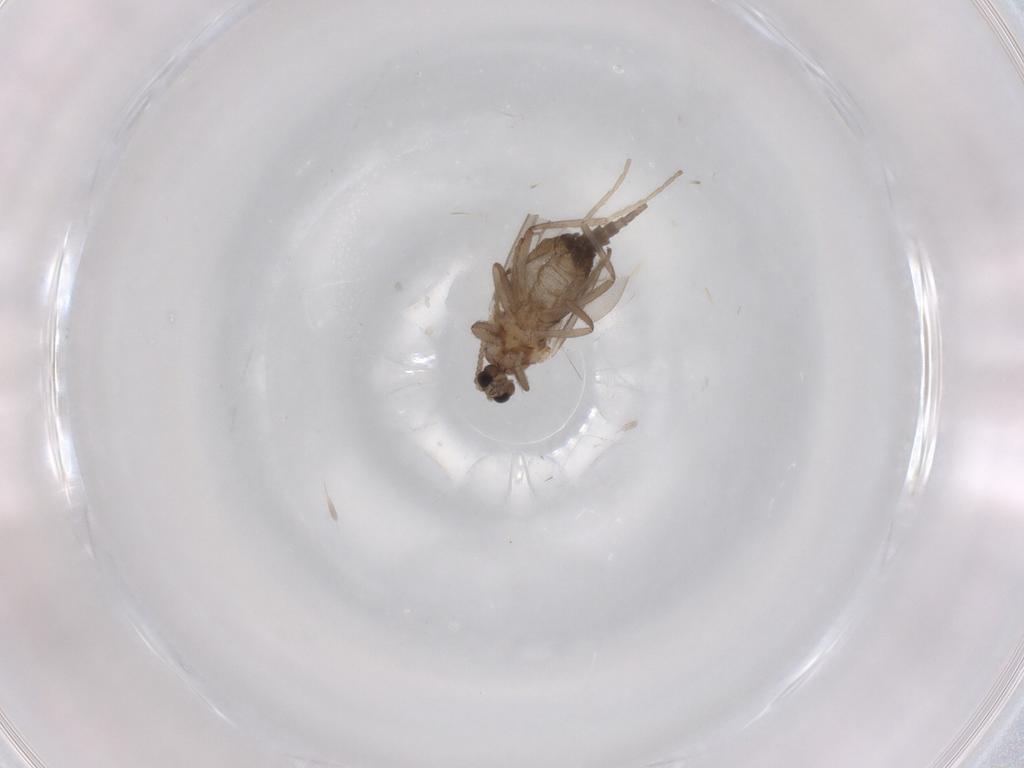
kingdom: Animalia
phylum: Arthropoda
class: Insecta
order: Diptera
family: Cecidomyiidae
